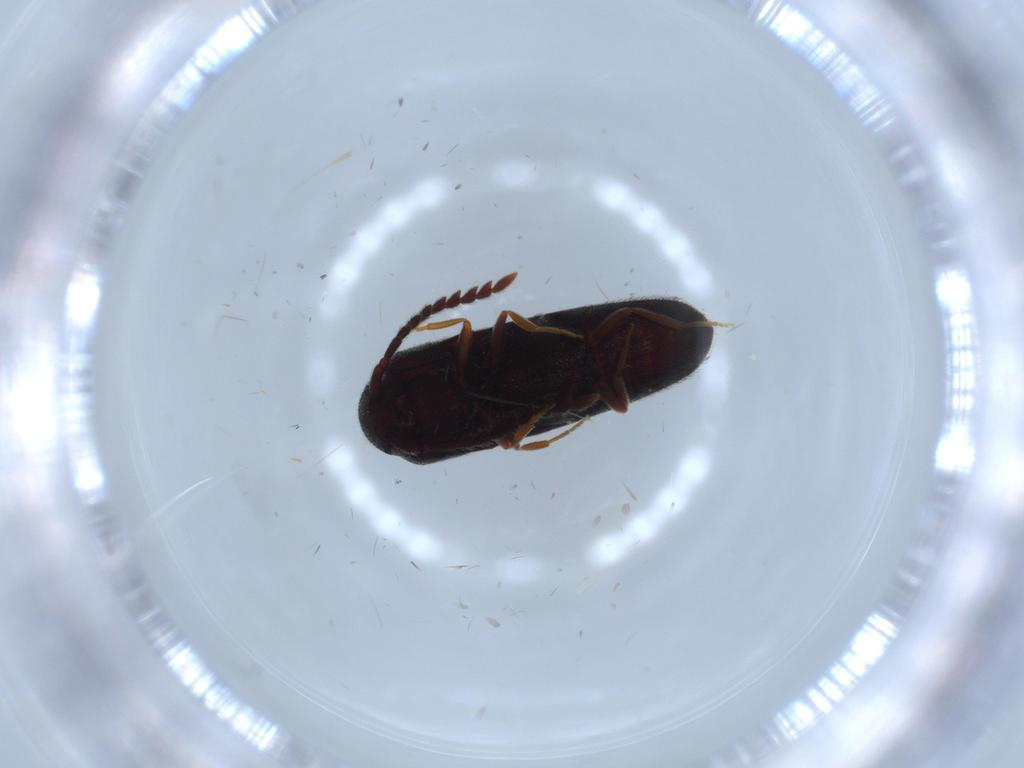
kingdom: Animalia
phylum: Arthropoda
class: Insecta
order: Coleoptera
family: Eucnemidae
